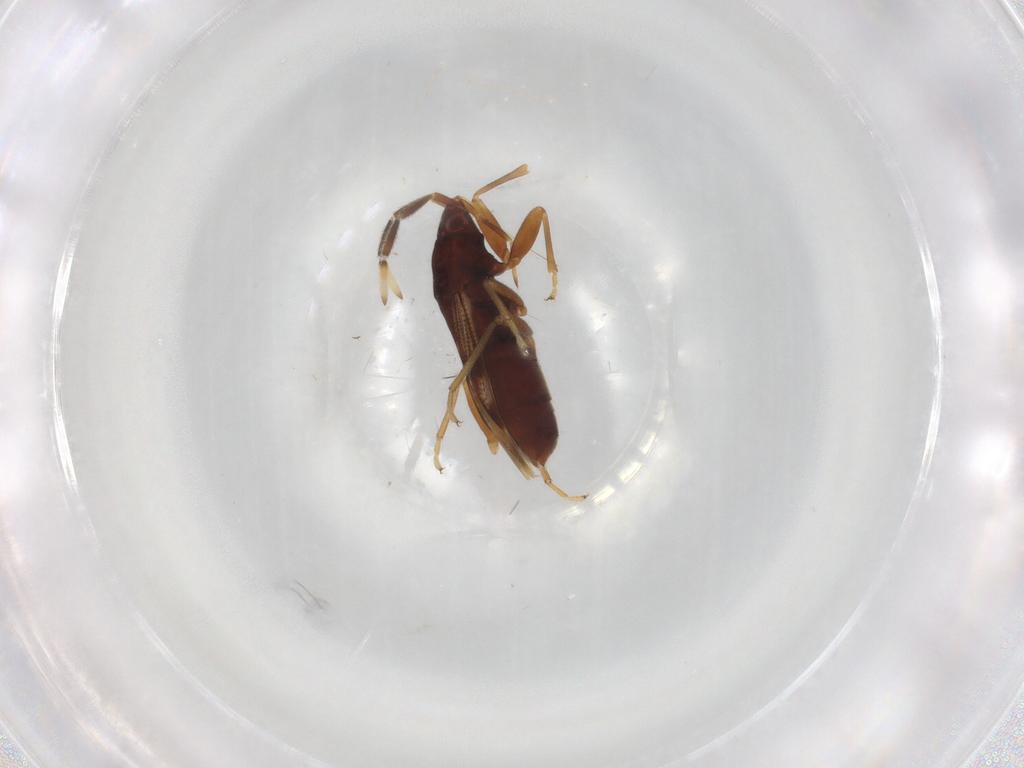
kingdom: Animalia
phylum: Arthropoda
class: Insecta
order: Hemiptera
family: Rhyparochromidae
